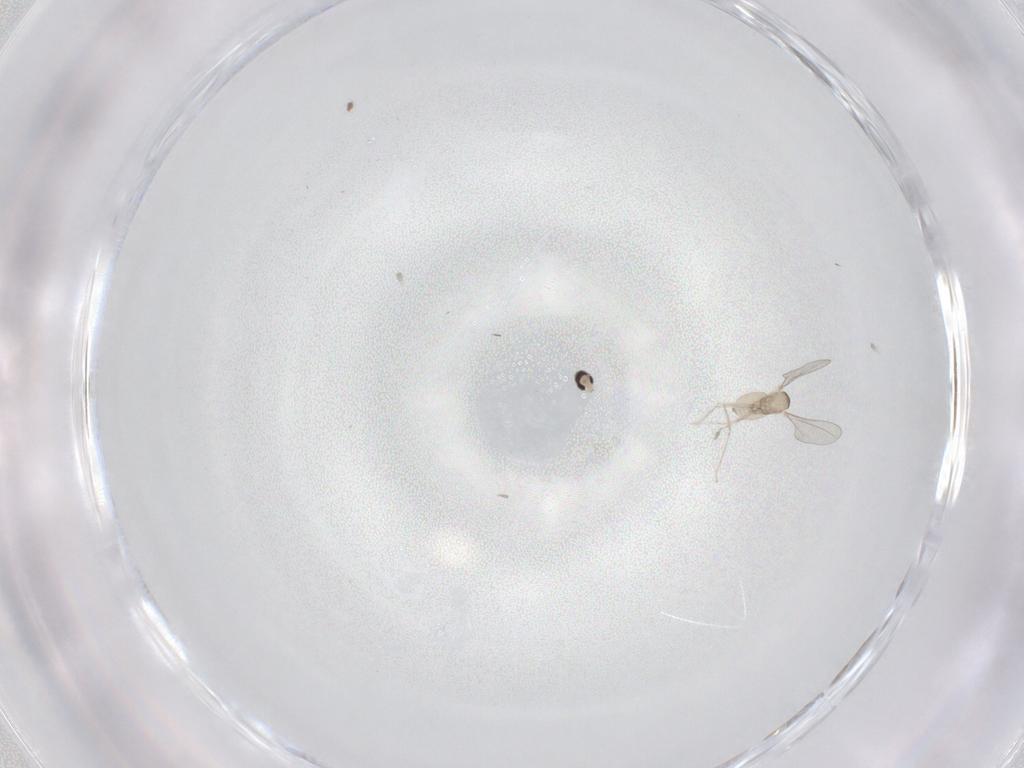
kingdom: Animalia
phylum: Arthropoda
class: Insecta
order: Diptera
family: Cecidomyiidae
